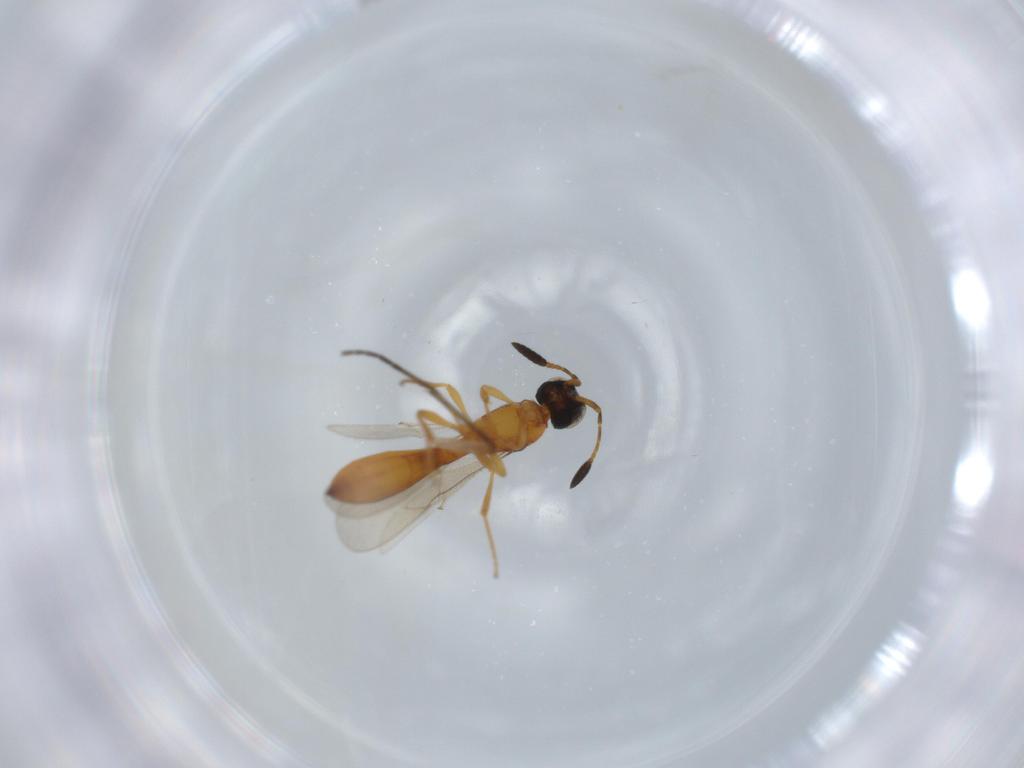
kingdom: Animalia
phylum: Arthropoda
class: Insecta
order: Hymenoptera
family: Scelionidae
